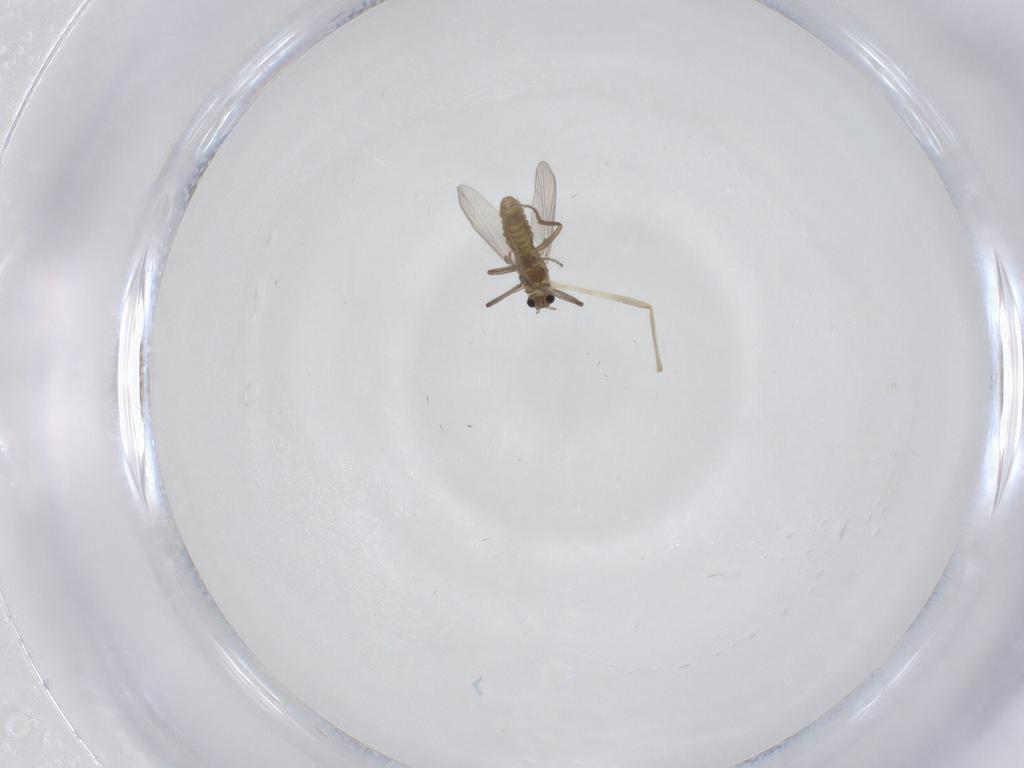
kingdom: Animalia
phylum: Arthropoda
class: Insecta
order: Diptera
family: Chironomidae
